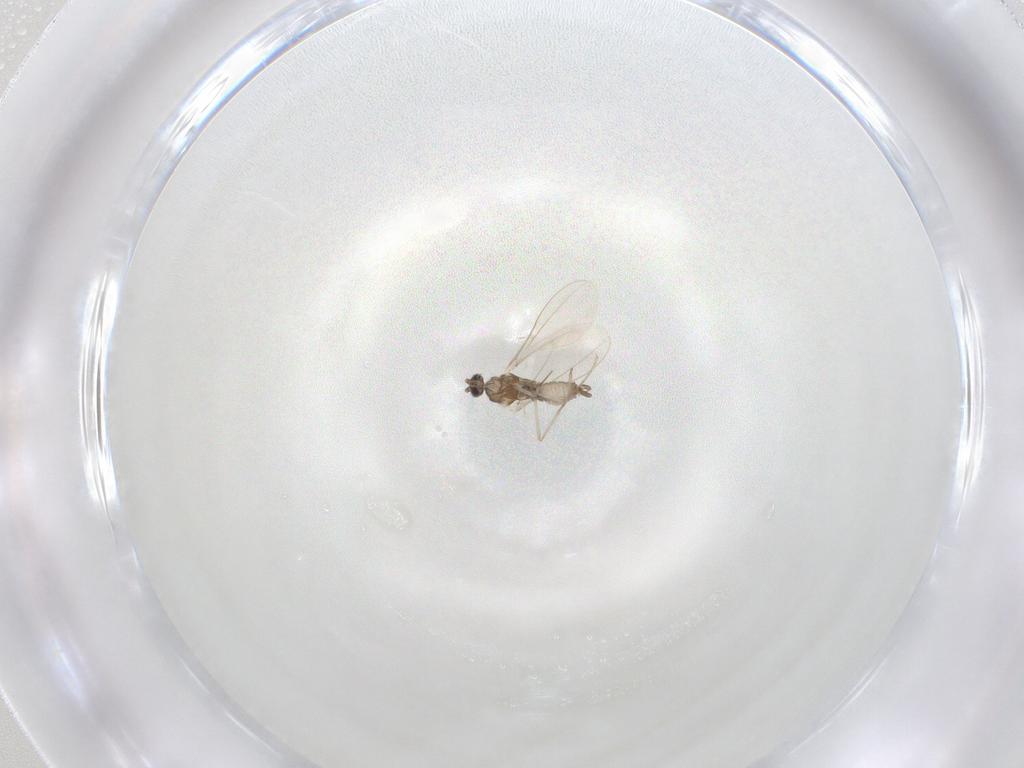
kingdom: Animalia
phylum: Arthropoda
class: Insecta
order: Diptera
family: Cecidomyiidae
